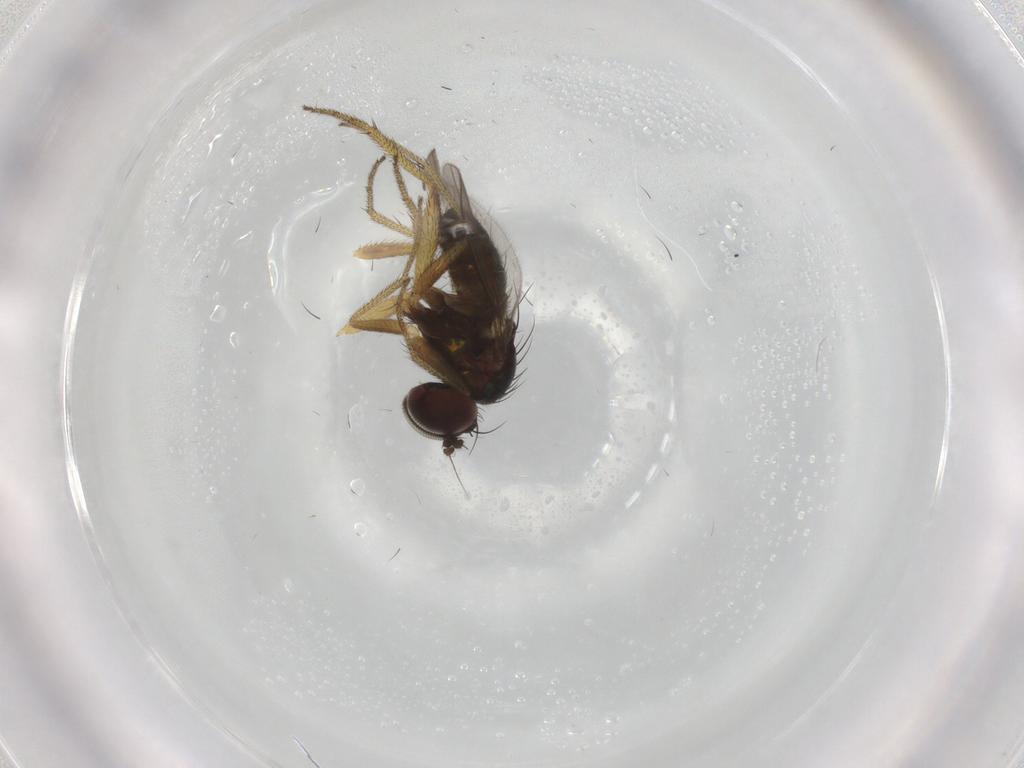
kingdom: Animalia
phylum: Arthropoda
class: Insecta
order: Diptera
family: Dolichopodidae
